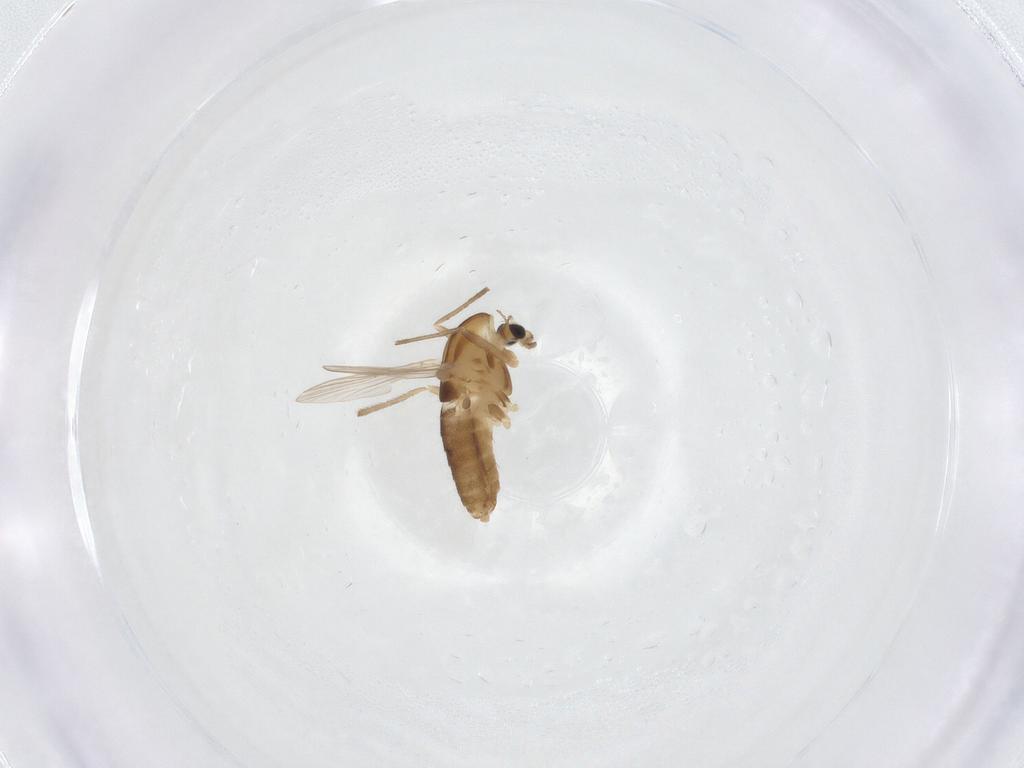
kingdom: Animalia
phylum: Arthropoda
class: Insecta
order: Diptera
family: Chironomidae
